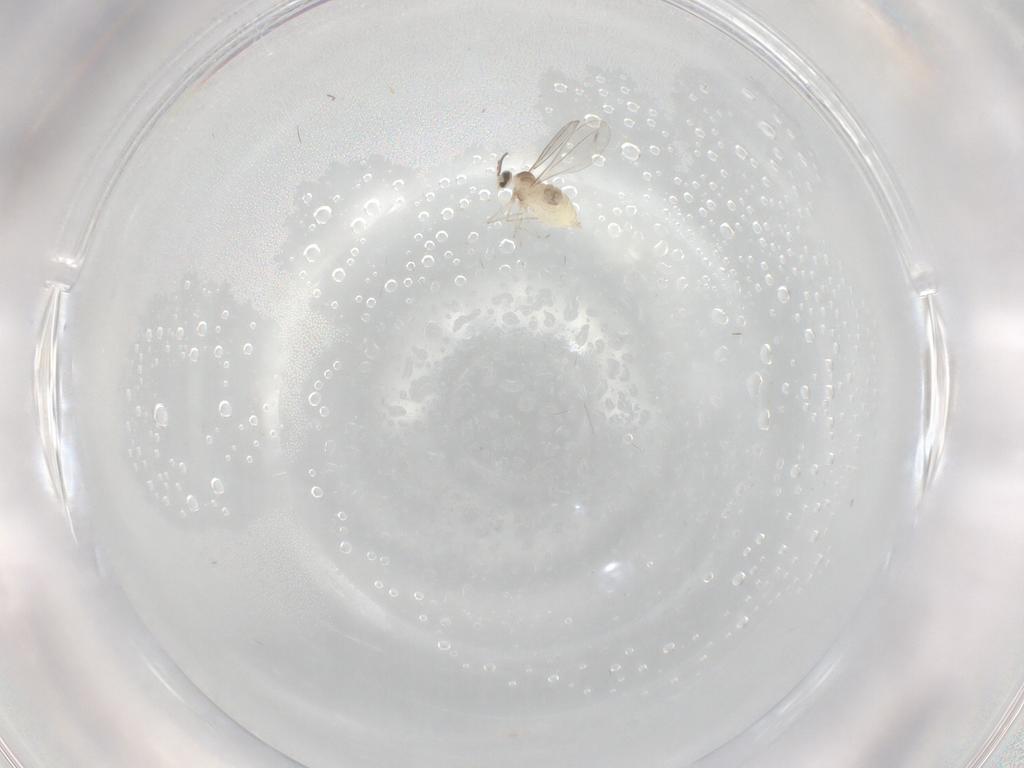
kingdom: Animalia
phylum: Arthropoda
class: Insecta
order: Diptera
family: Cecidomyiidae
